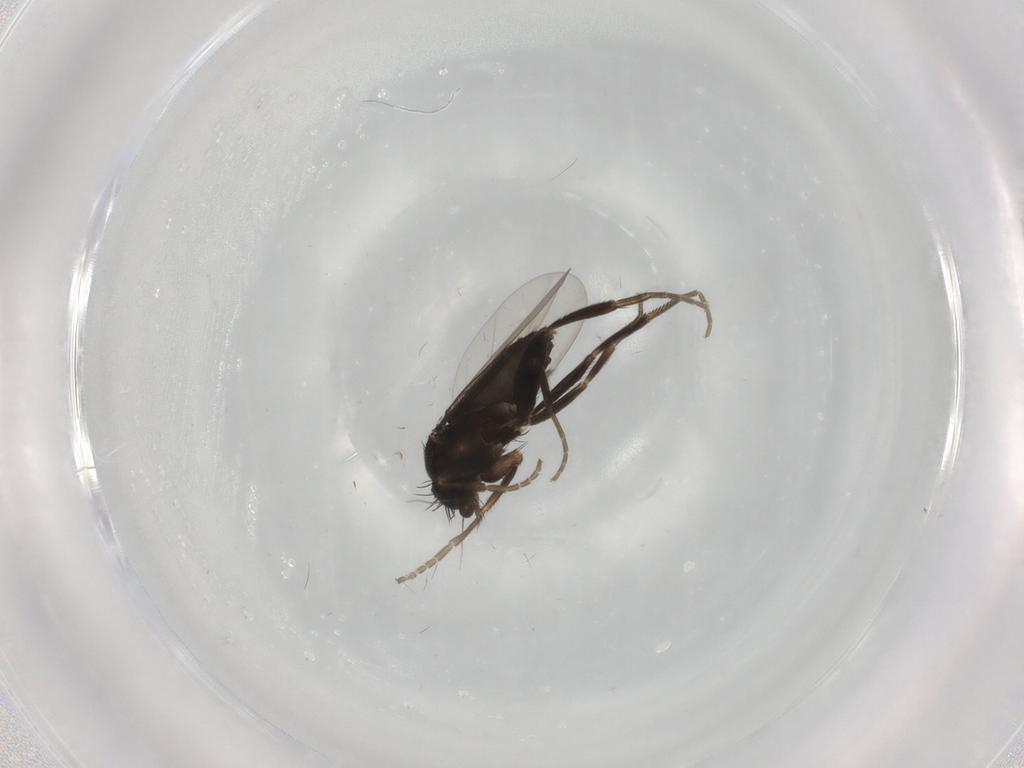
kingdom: Animalia
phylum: Arthropoda
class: Insecta
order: Diptera
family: Phoridae
